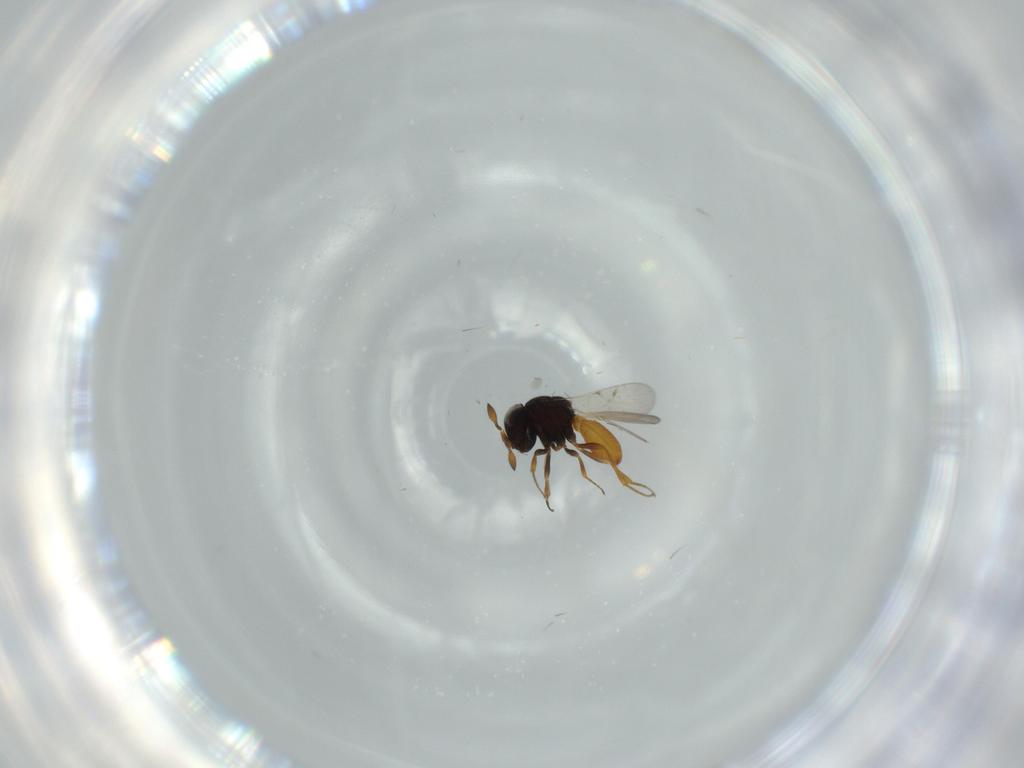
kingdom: Animalia
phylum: Arthropoda
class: Insecta
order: Hymenoptera
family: Scelionidae
